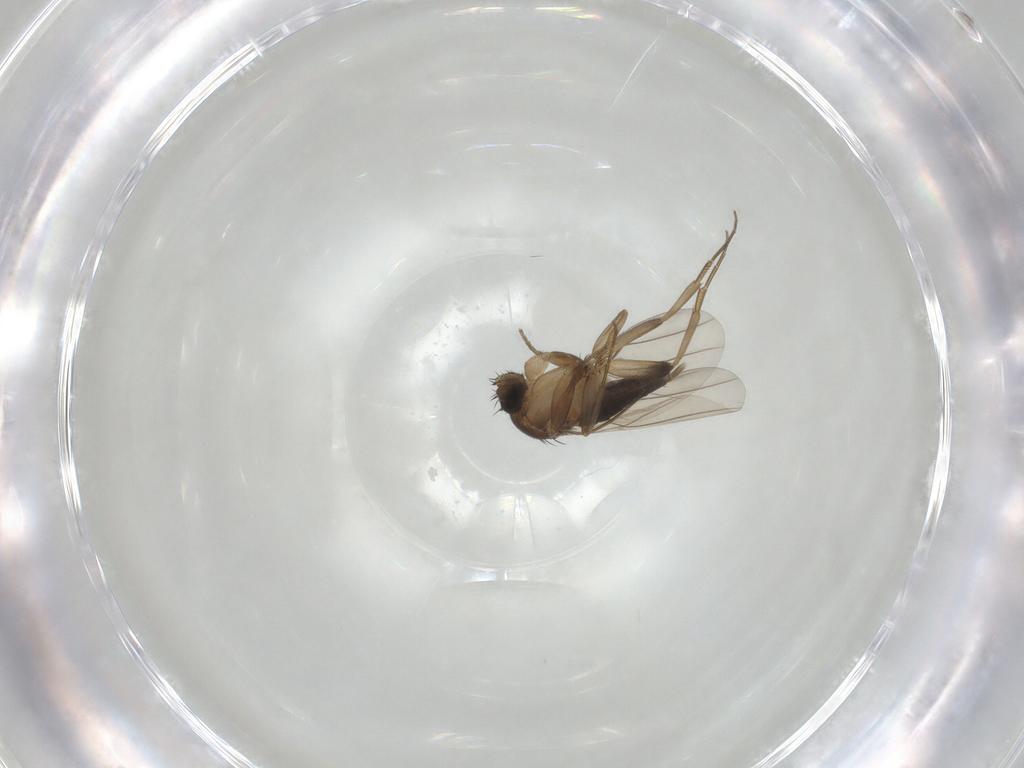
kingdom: Animalia
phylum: Arthropoda
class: Insecta
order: Diptera
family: Phoridae
